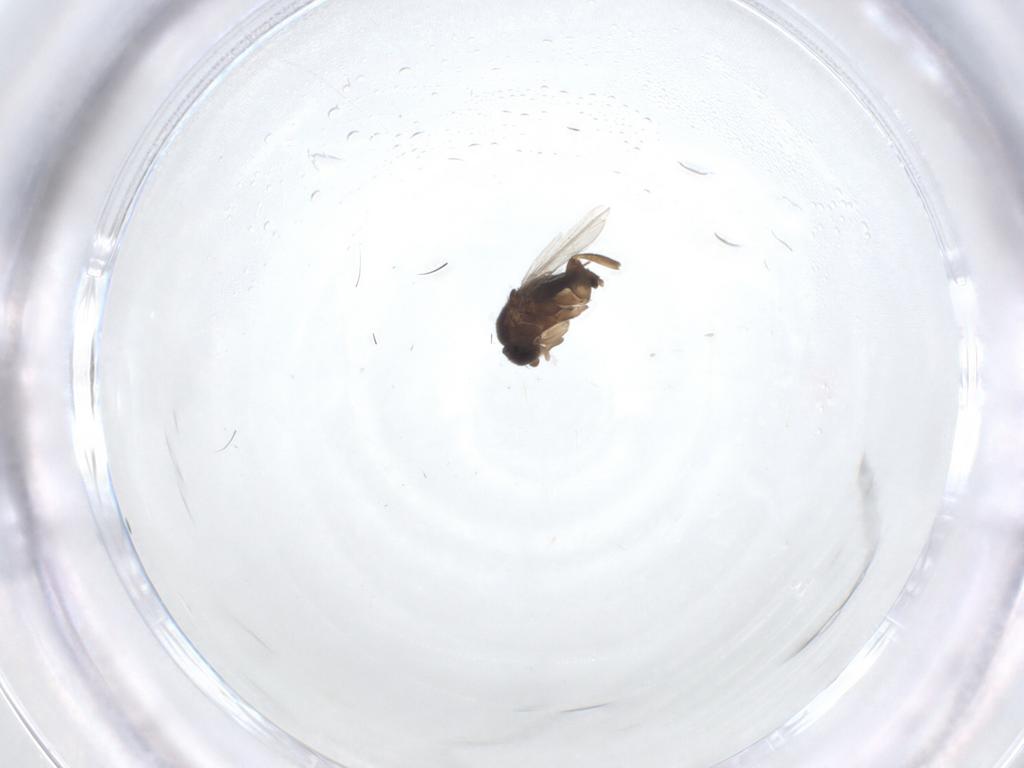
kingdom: Animalia
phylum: Arthropoda
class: Insecta
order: Diptera
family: Phoridae
